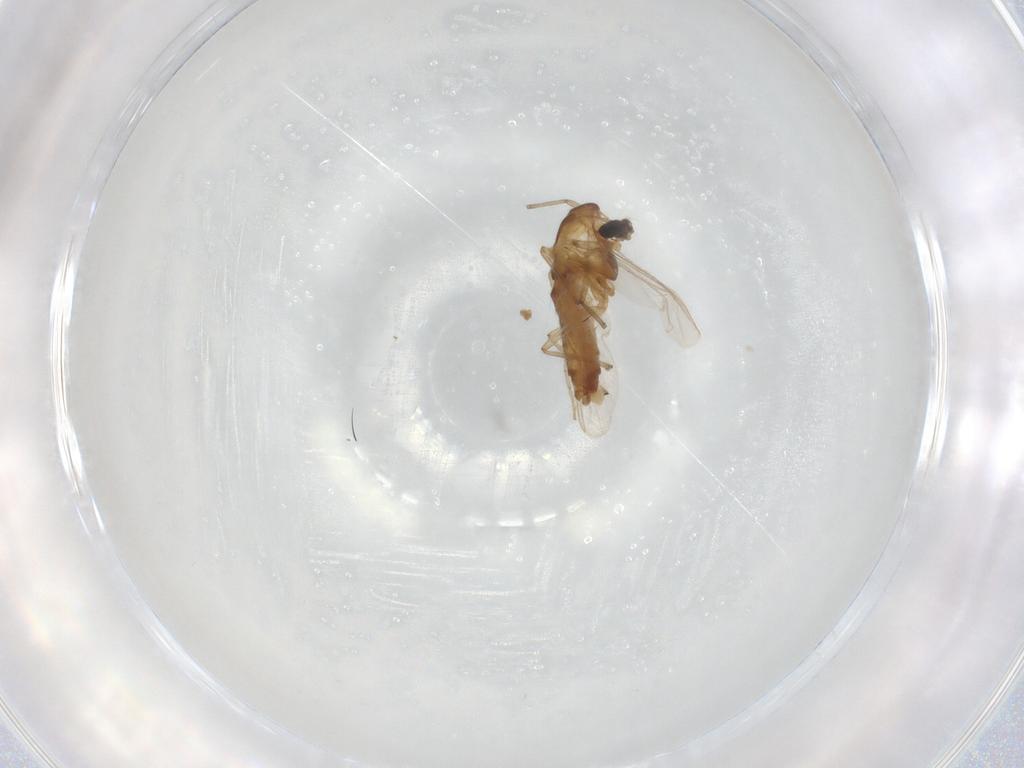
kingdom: Animalia
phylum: Arthropoda
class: Insecta
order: Diptera
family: Chironomidae
